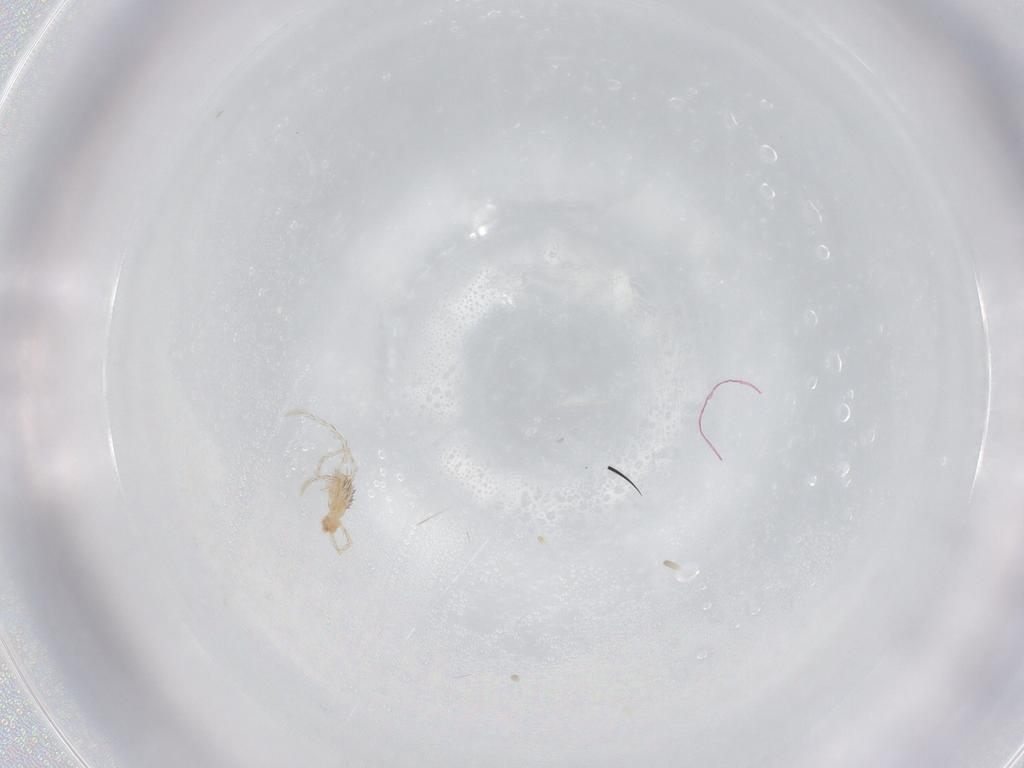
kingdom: Animalia
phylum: Arthropoda
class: Arachnida
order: Trombidiformes
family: Erythraeidae
